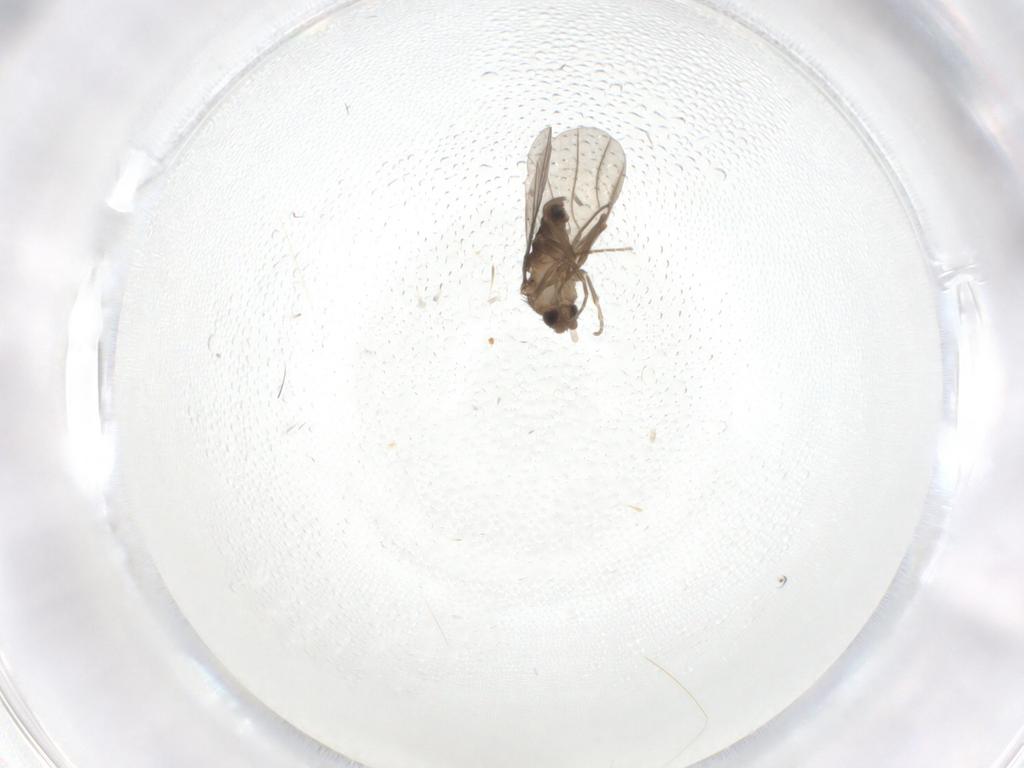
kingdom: Animalia
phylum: Arthropoda
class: Insecta
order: Diptera
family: Phoridae
